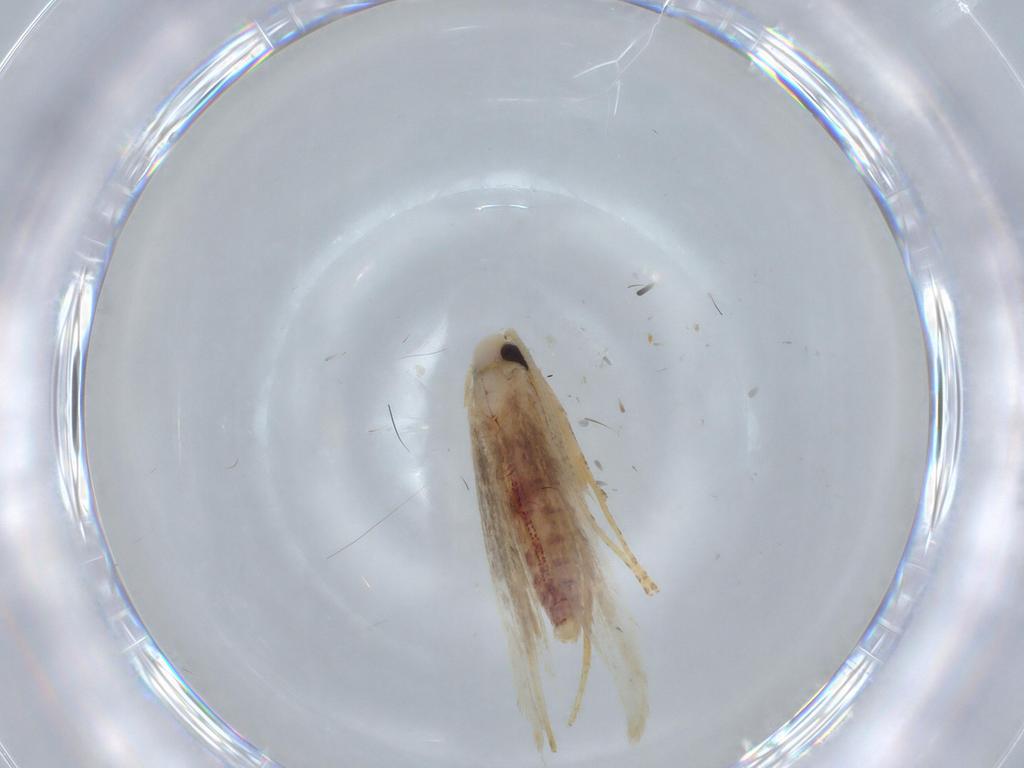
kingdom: Animalia
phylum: Arthropoda
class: Insecta
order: Lepidoptera
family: Batrachedridae
